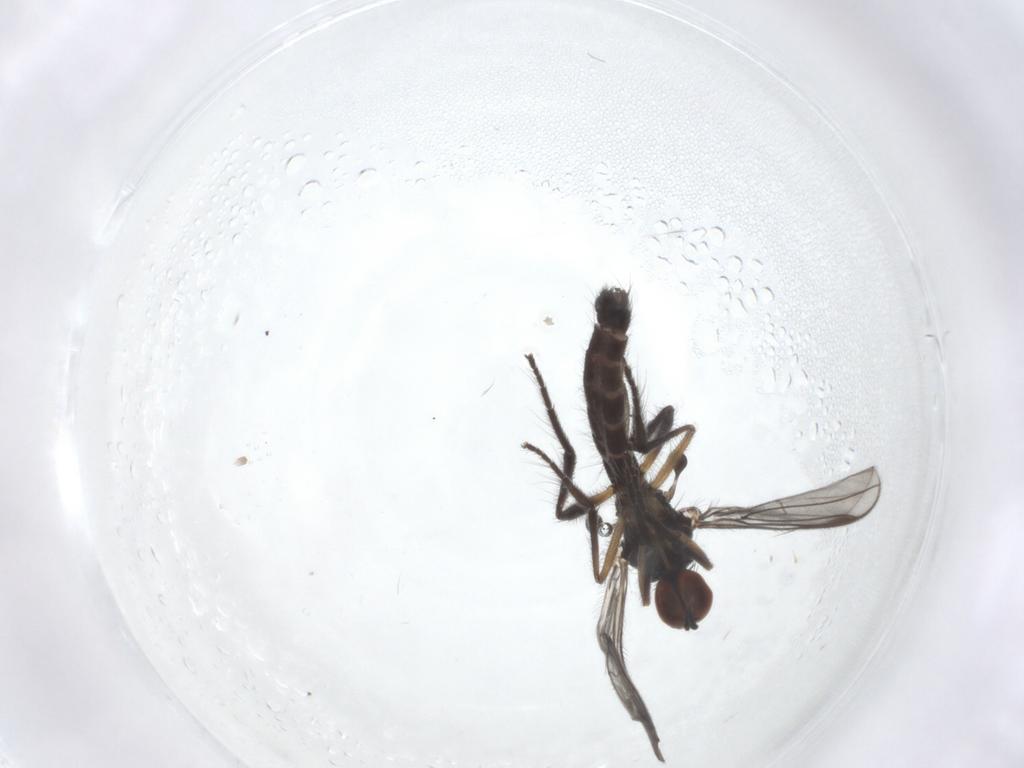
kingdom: Animalia
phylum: Arthropoda
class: Insecta
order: Diptera
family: Empididae
